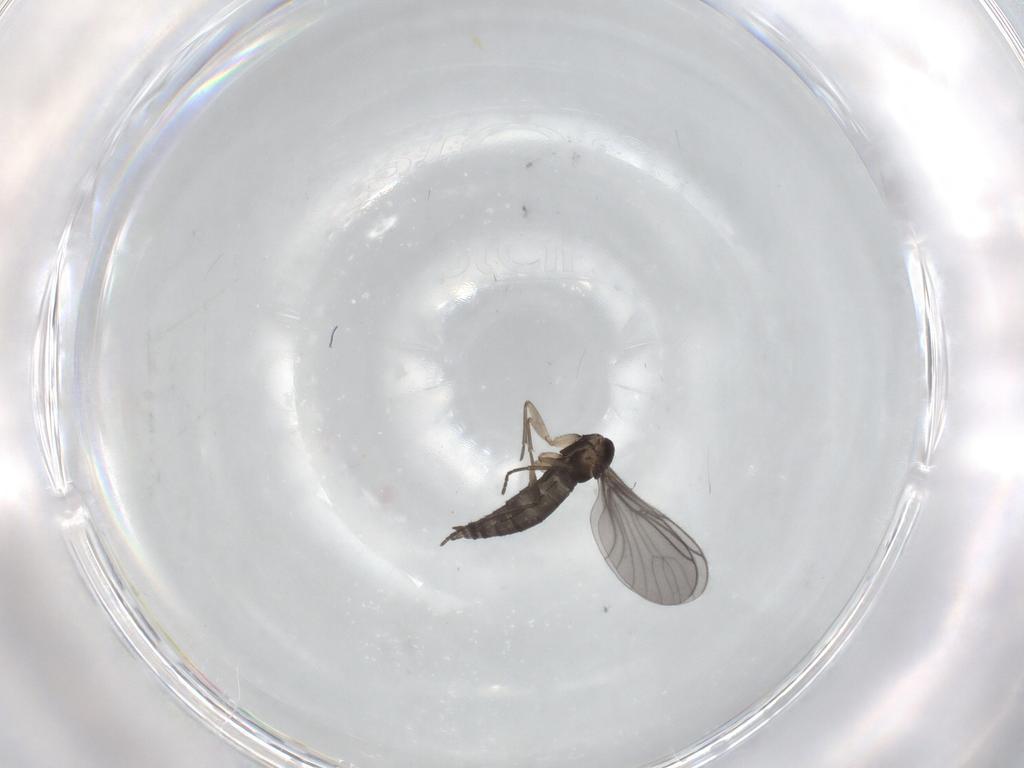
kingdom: Animalia
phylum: Arthropoda
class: Insecta
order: Diptera
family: Sciaridae
